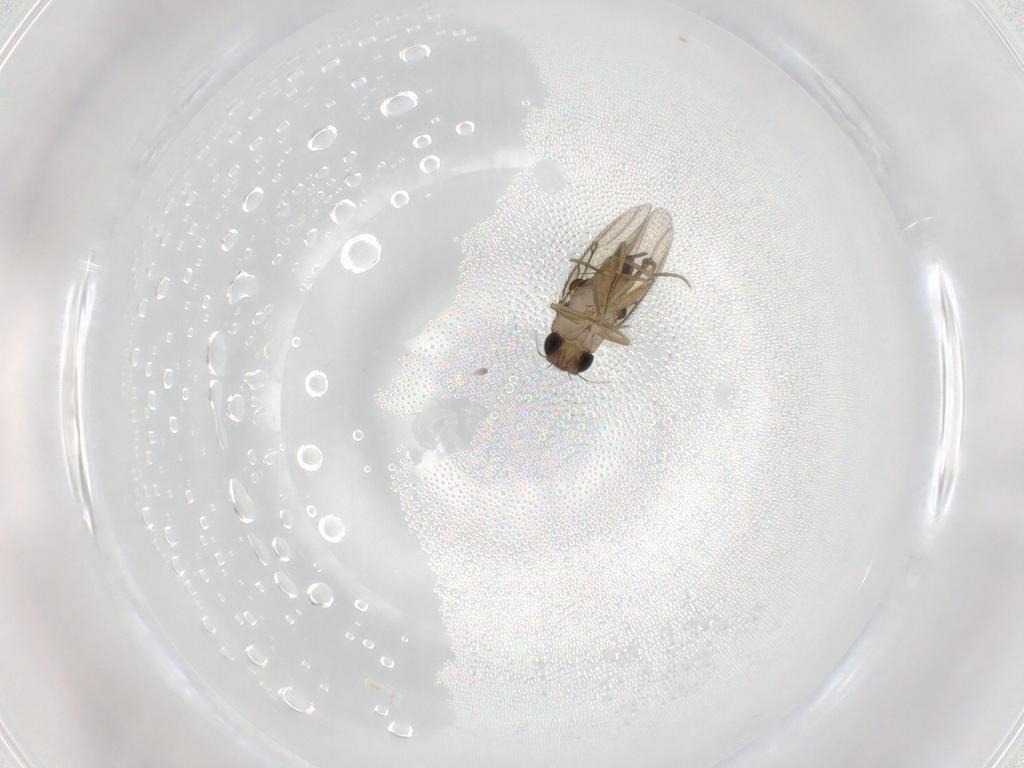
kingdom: Animalia
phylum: Arthropoda
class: Insecta
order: Diptera
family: Phoridae
